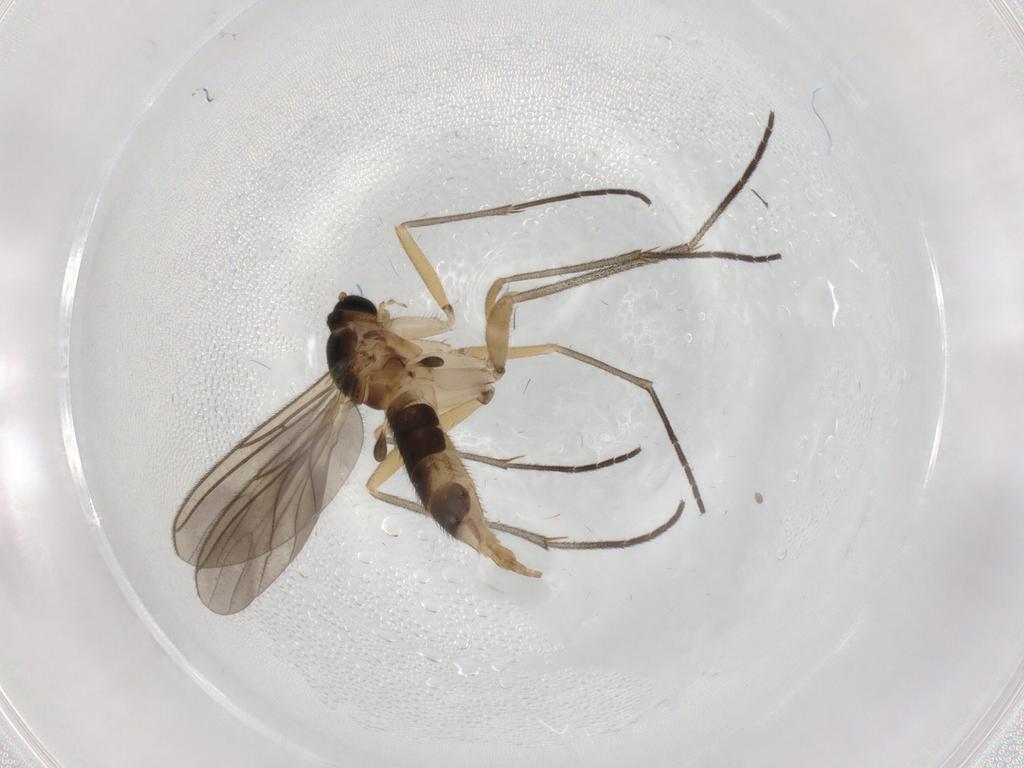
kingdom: Animalia
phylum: Arthropoda
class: Insecta
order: Diptera
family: Sciaridae
